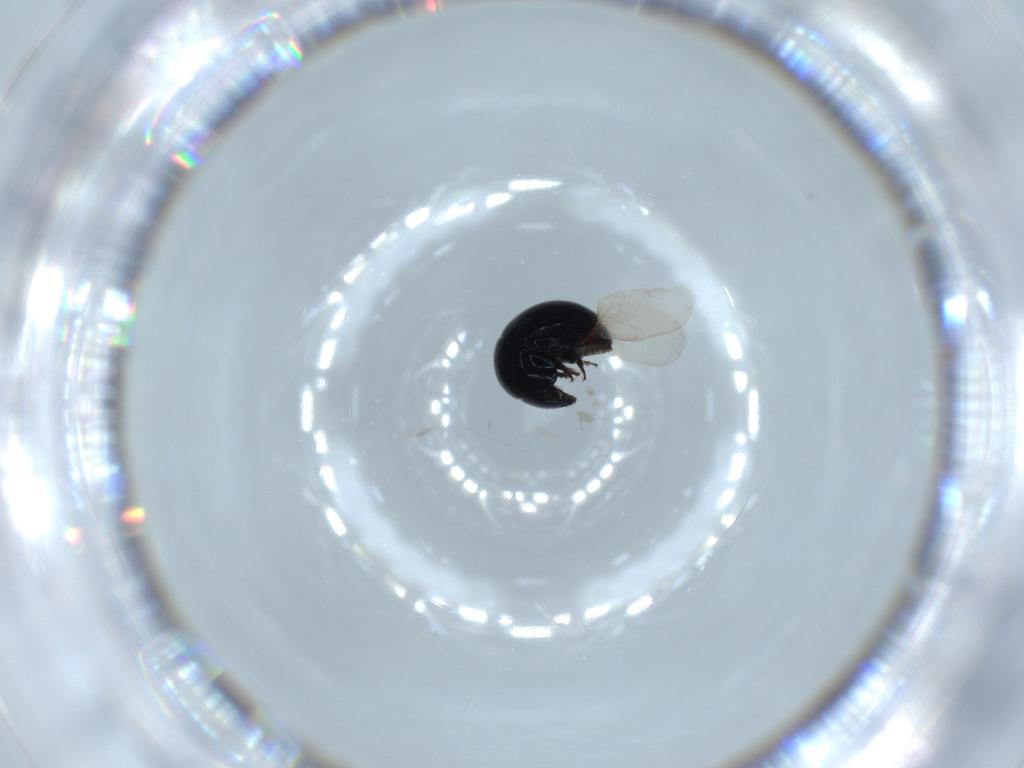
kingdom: Animalia
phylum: Arthropoda
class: Insecta
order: Coleoptera
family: Cybocephalidae
